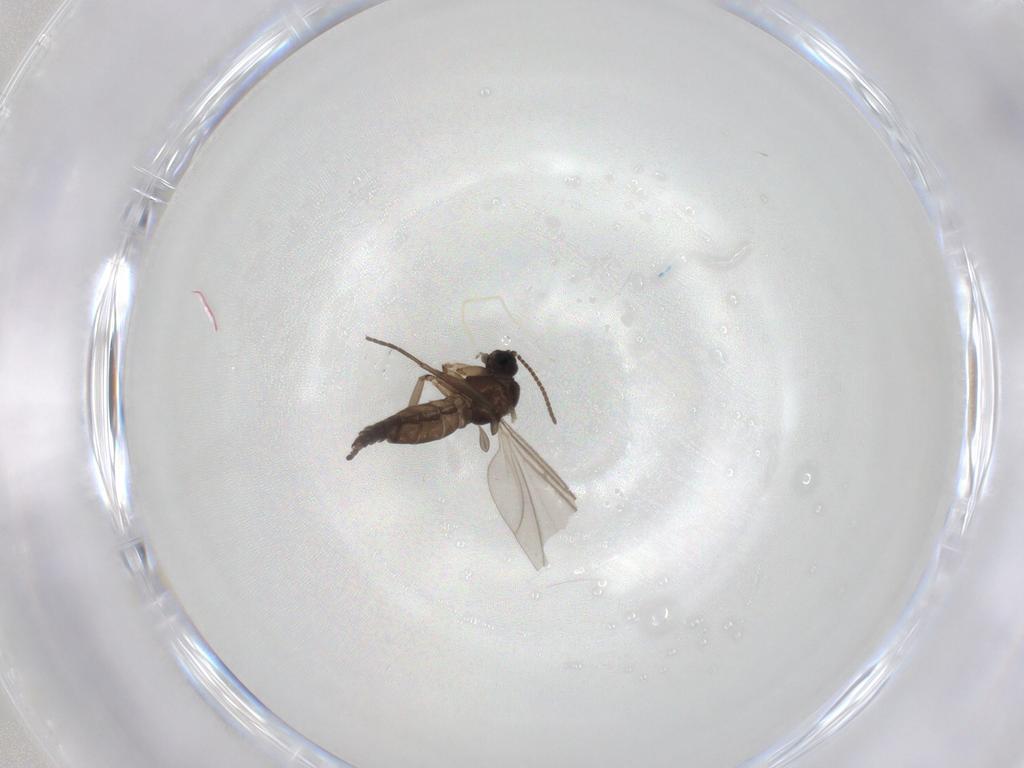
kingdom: Animalia
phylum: Arthropoda
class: Insecta
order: Diptera
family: Sciaridae
